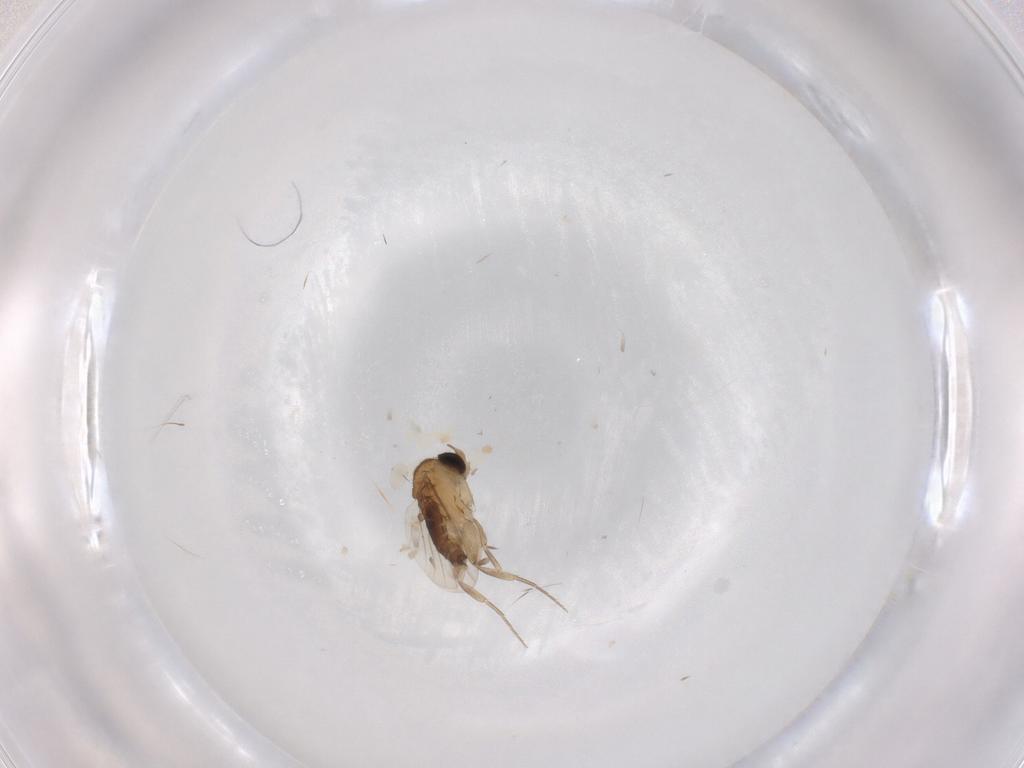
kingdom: Animalia
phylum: Arthropoda
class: Insecta
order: Diptera
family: Phoridae
